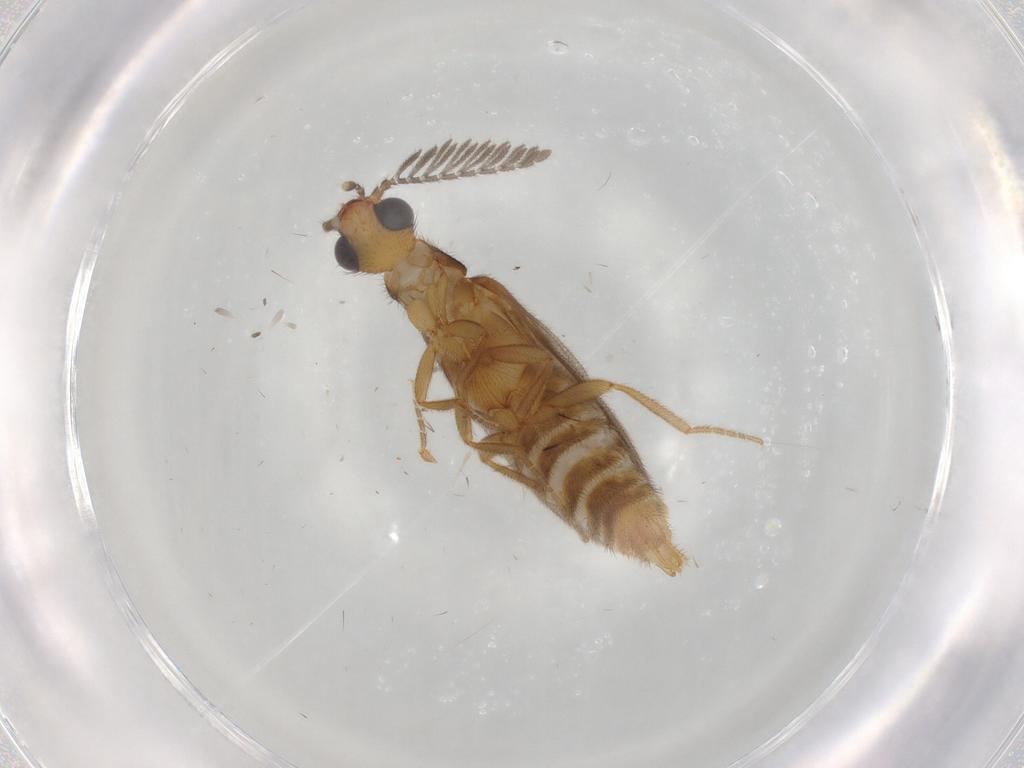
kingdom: Animalia
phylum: Arthropoda
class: Insecta
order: Coleoptera
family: Phengodidae
